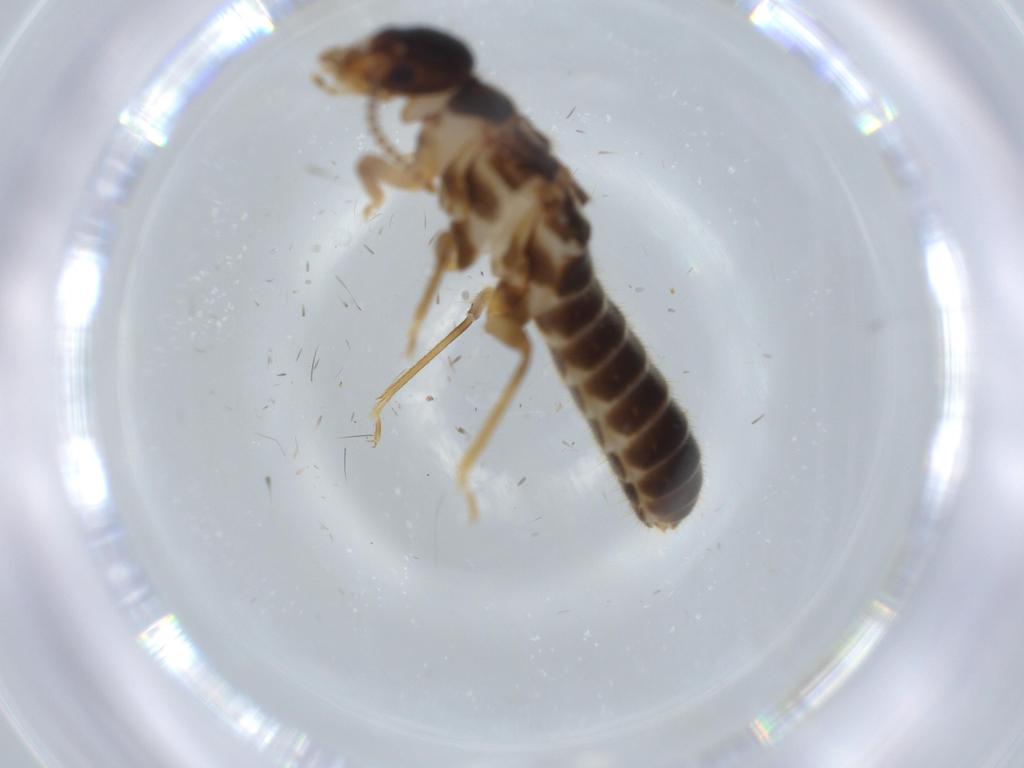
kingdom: Animalia
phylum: Arthropoda
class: Insecta
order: Blattodea
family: Termitidae
